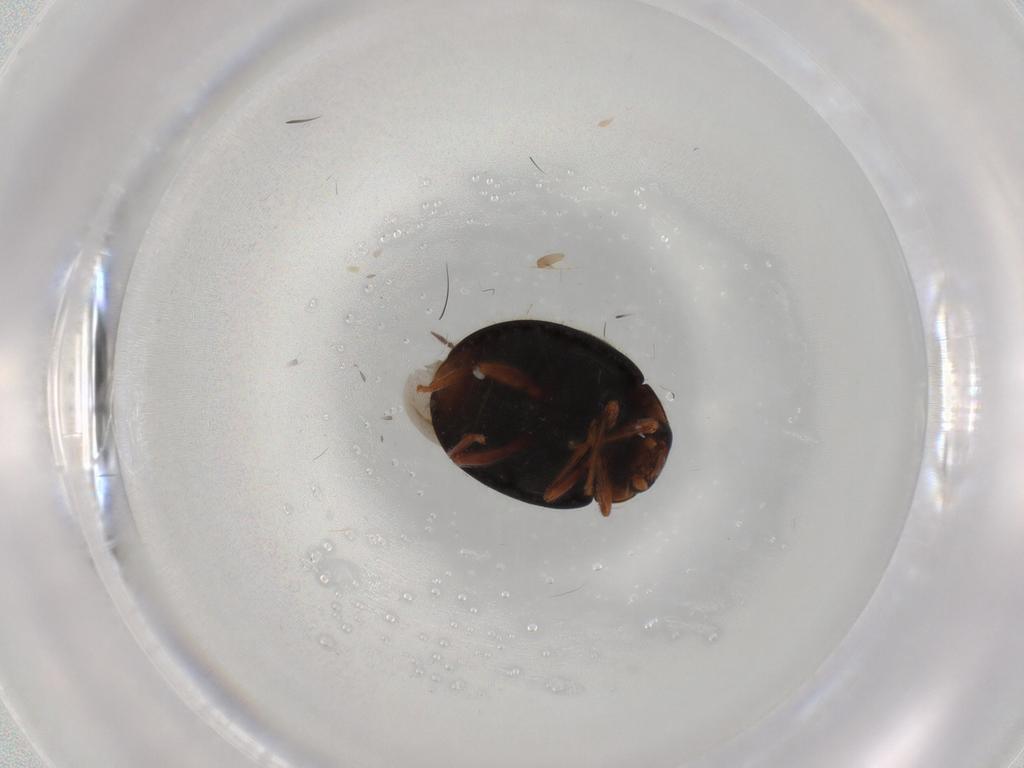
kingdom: Animalia
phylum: Arthropoda
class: Insecta
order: Coleoptera
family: Coccinellidae
